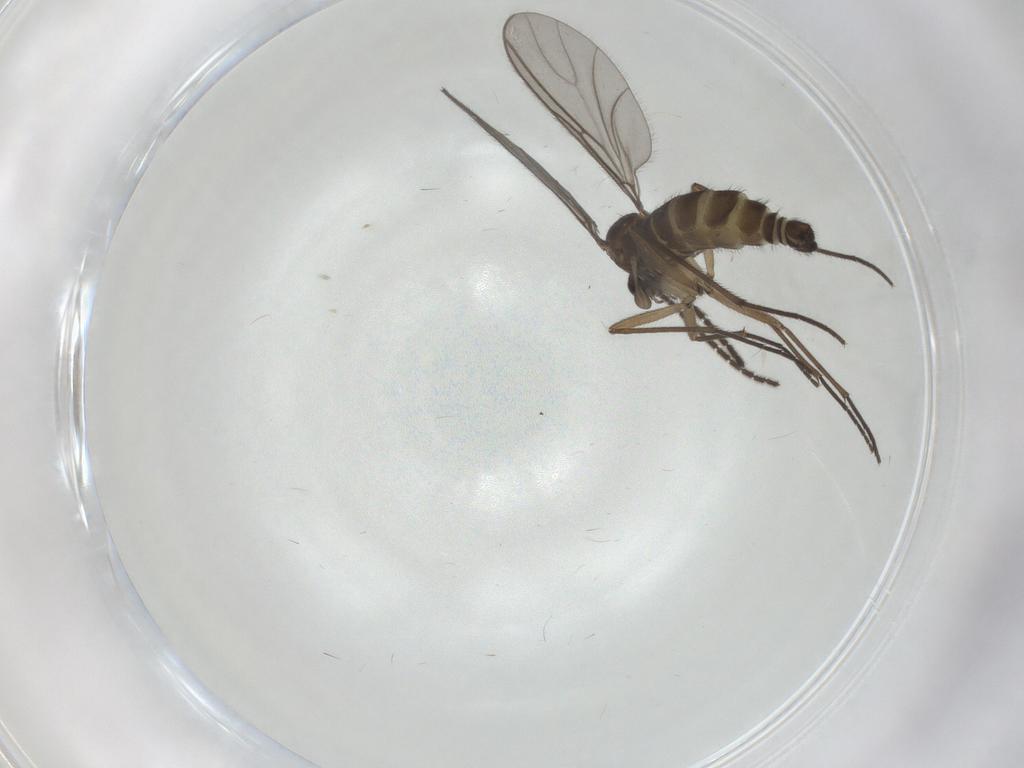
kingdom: Animalia
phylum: Arthropoda
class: Insecta
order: Diptera
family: Sciaridae
